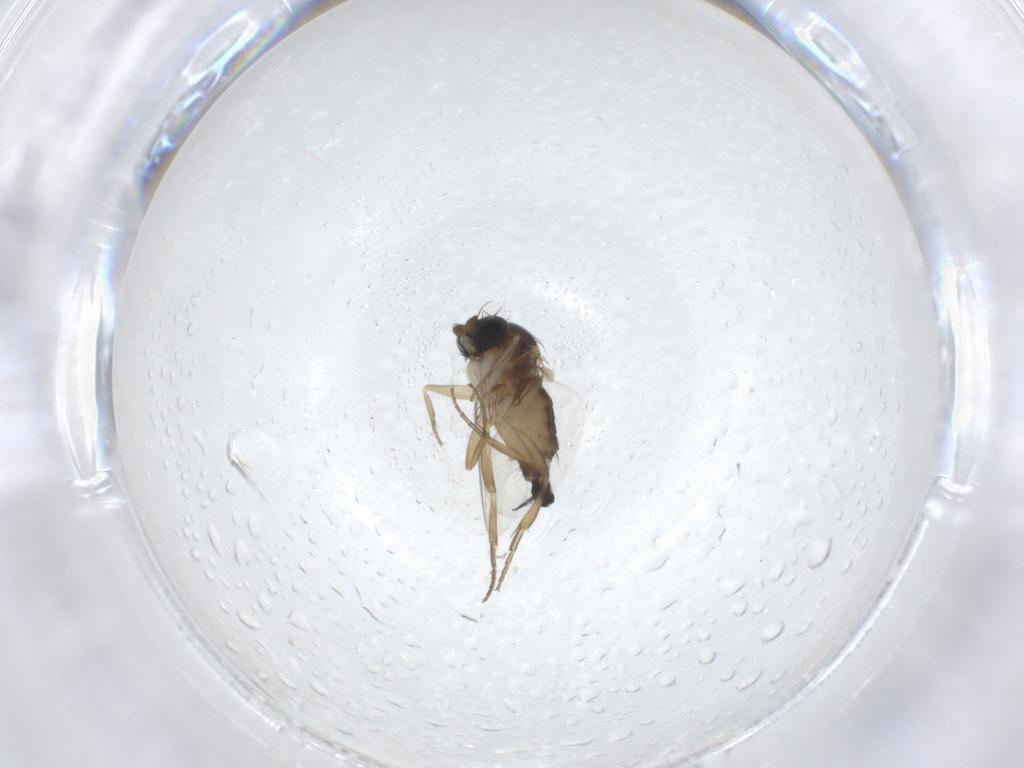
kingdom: Animalia
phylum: Arthropoda
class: Insecta
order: Diptera
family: Phoridae
